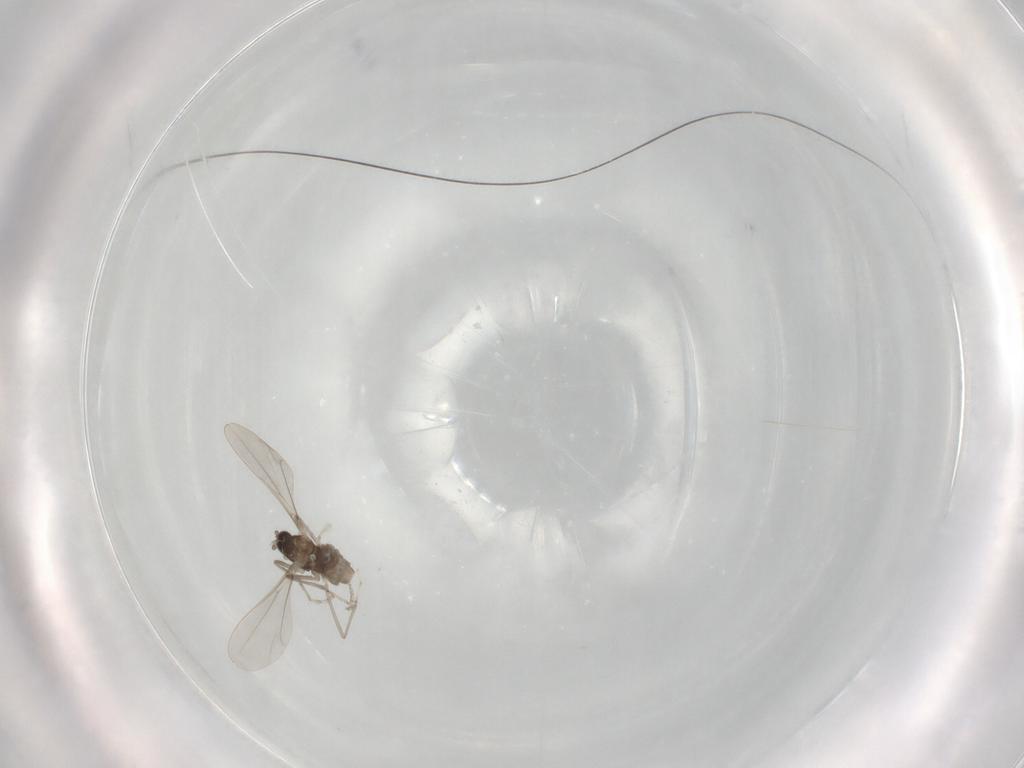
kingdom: Animalia
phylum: Arthropoda
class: Insecta
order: Diptera
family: Cecidomyiidae
